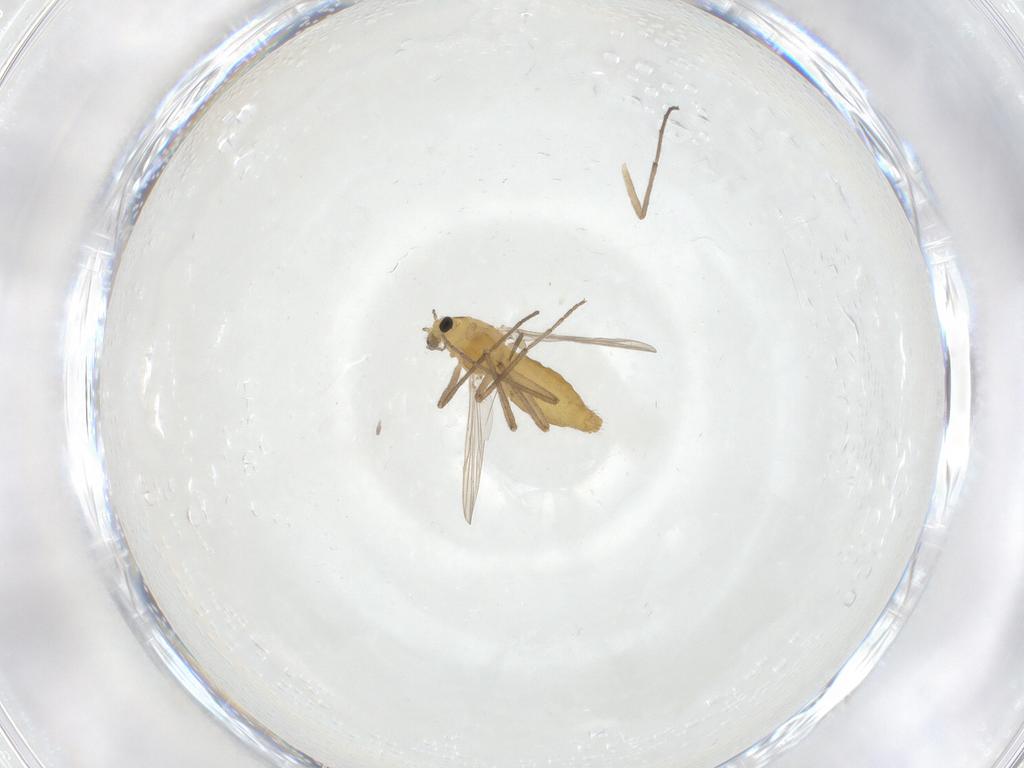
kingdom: Animalia
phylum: Arthropoda
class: Insecta
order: Diptera
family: Chironomidae
